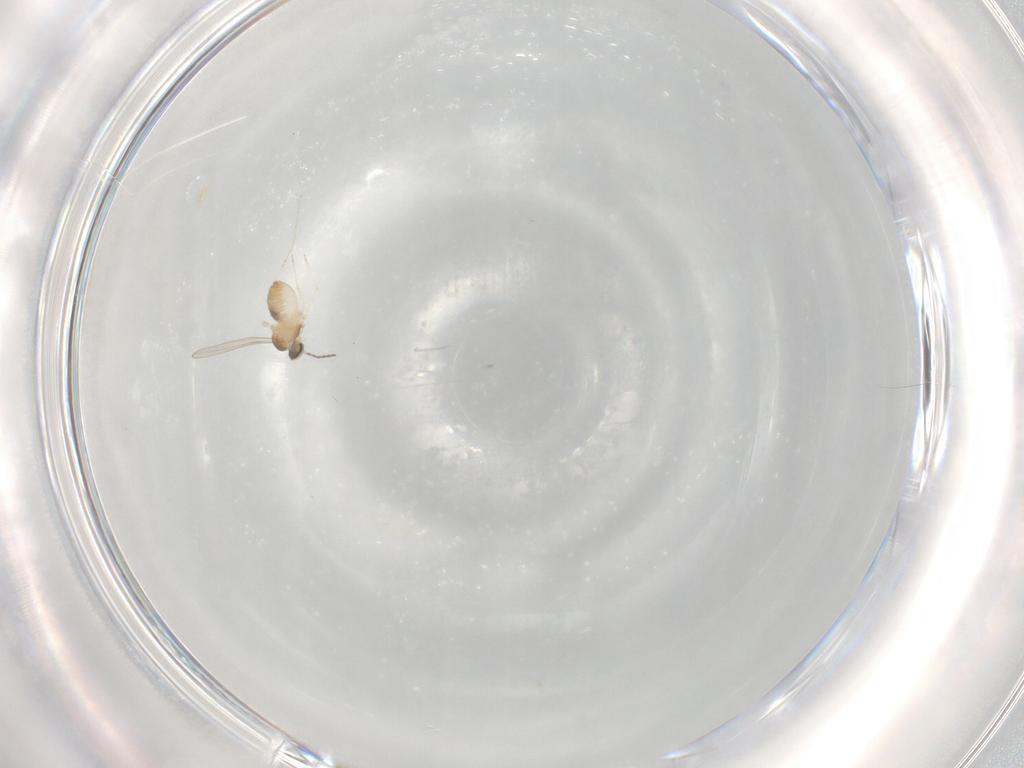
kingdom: Animalia
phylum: Arthropoda
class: Insecta
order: Diptera
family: Cecidomyiidae
